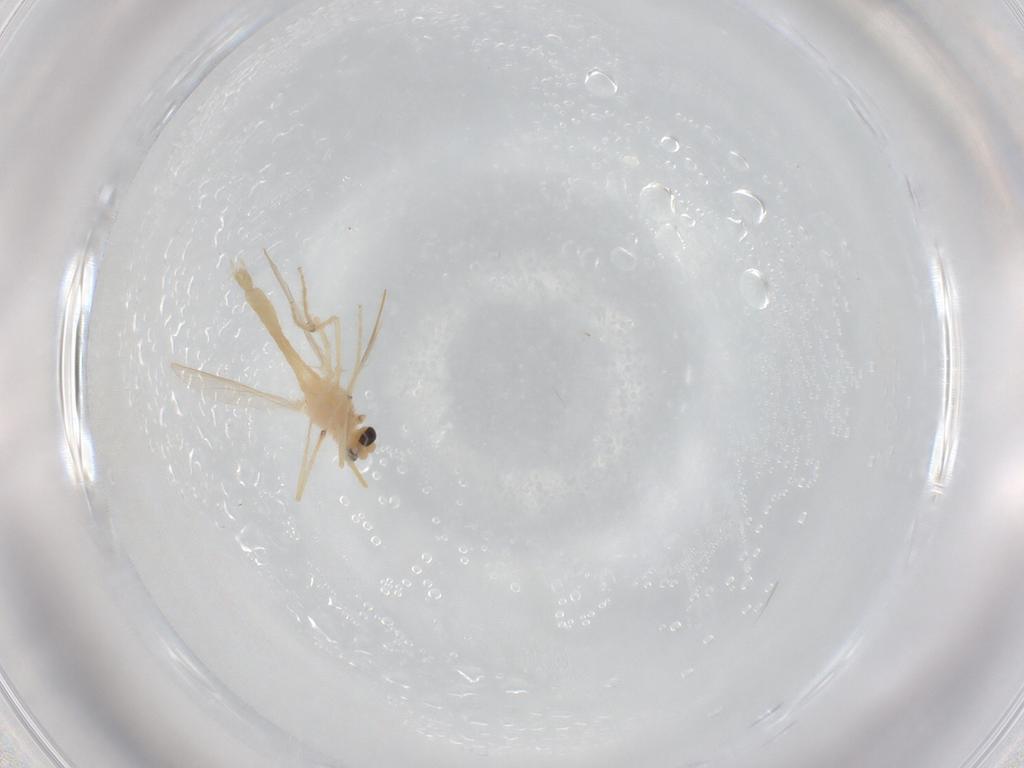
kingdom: Animalia
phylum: Arthropoda
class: Insecta
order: Diptera
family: Chironomidae
